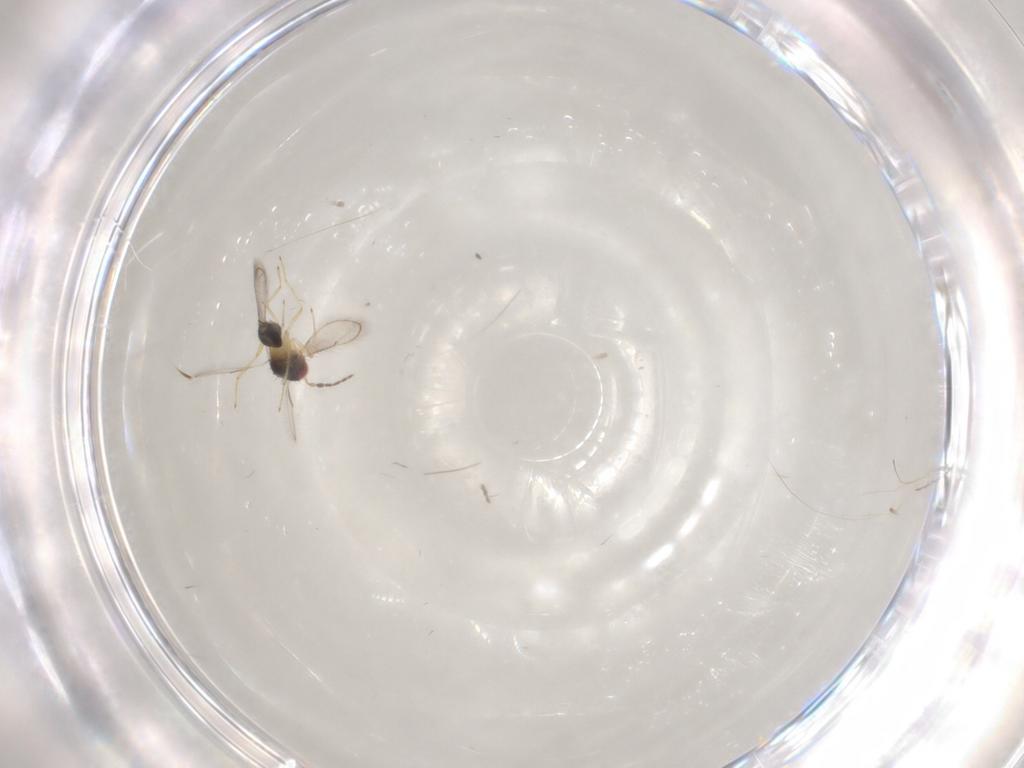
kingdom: Animalia
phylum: Arthropoda
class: Insecta
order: Hymenoptera
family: Eulophidae
